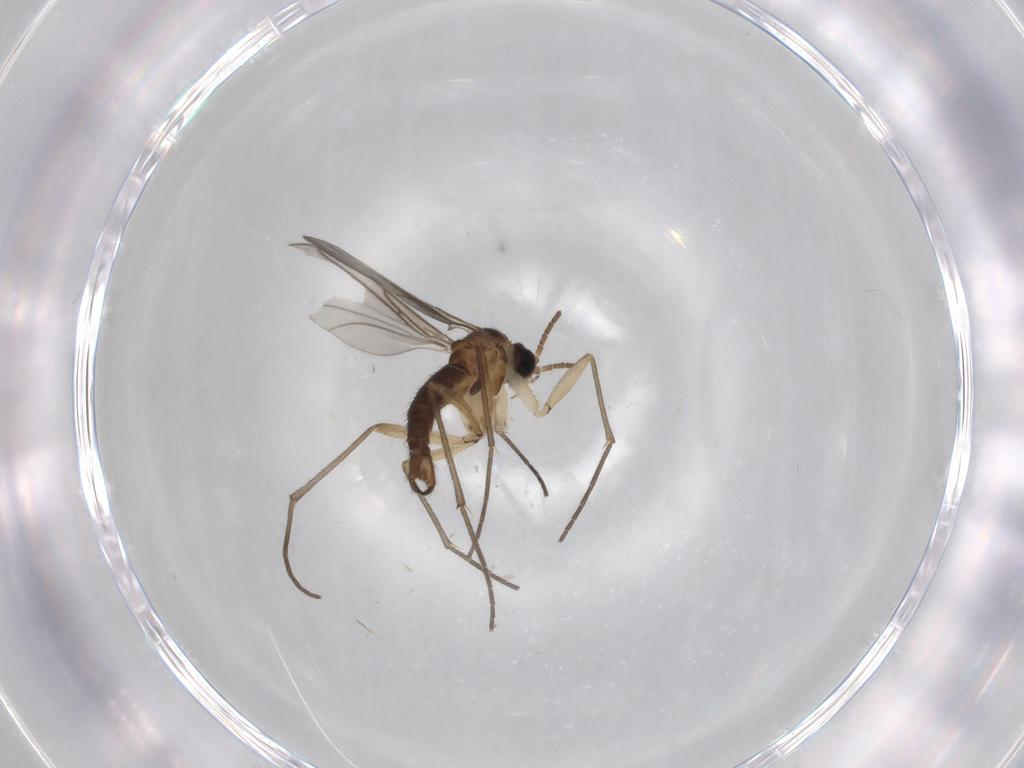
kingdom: Animalia
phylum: Arthropoda
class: Insecta
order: Diptera
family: Sciaridae
